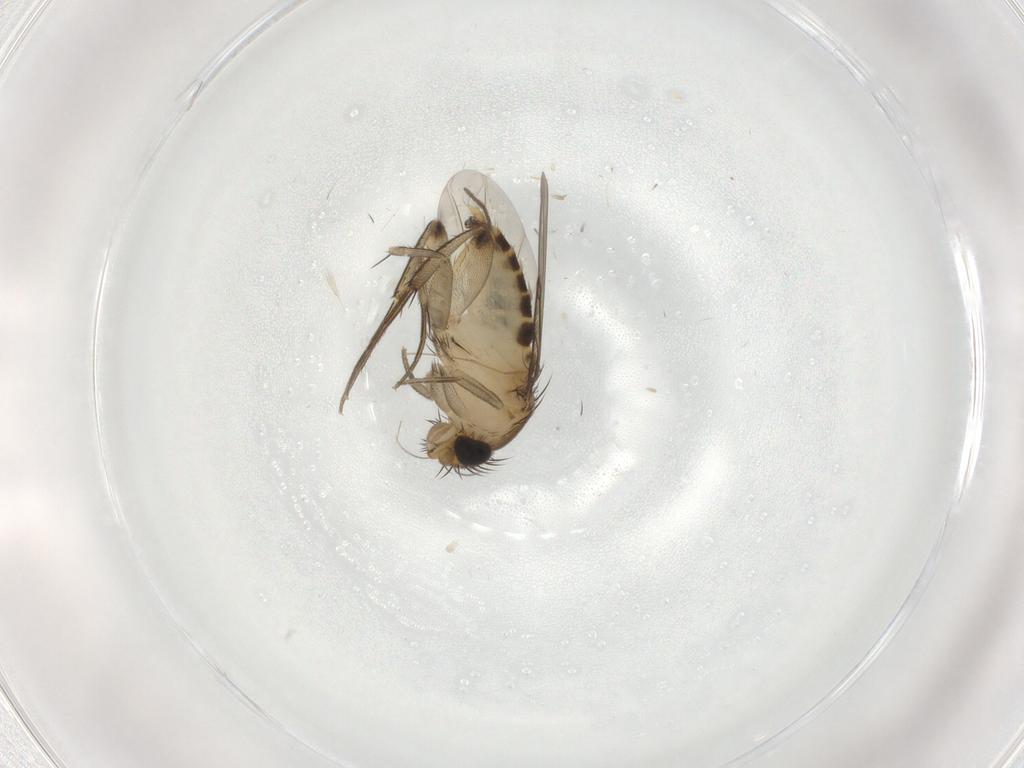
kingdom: Animalia
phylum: Arthropoda
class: Insecta
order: Diptera
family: Phoridae
